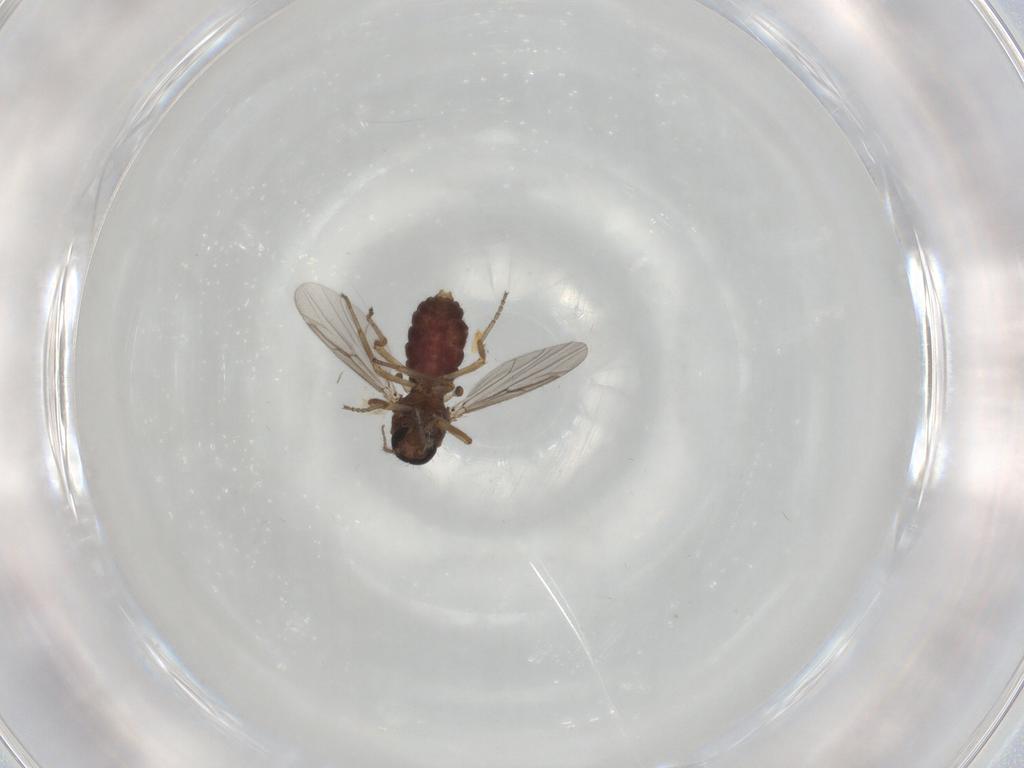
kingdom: Animalia
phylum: Arthropoda
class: Insecta
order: Diptera
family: Ceratopogonidae
